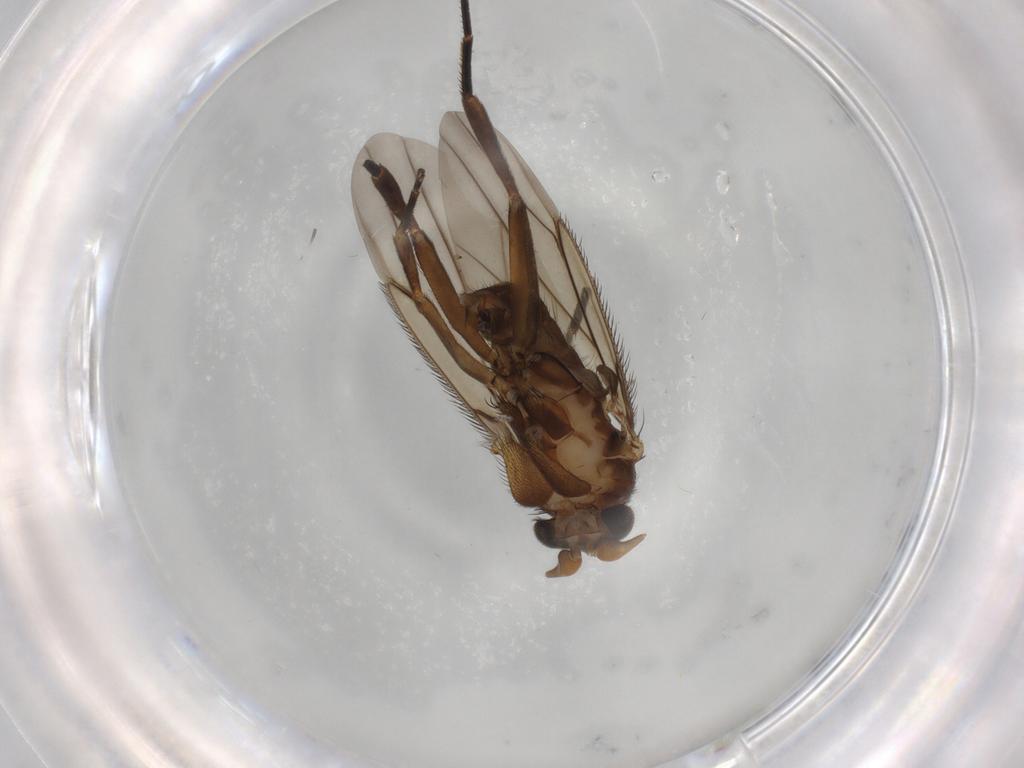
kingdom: Animalia
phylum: Arthropoda
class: Insecta
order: Diptera
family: Phoridae
